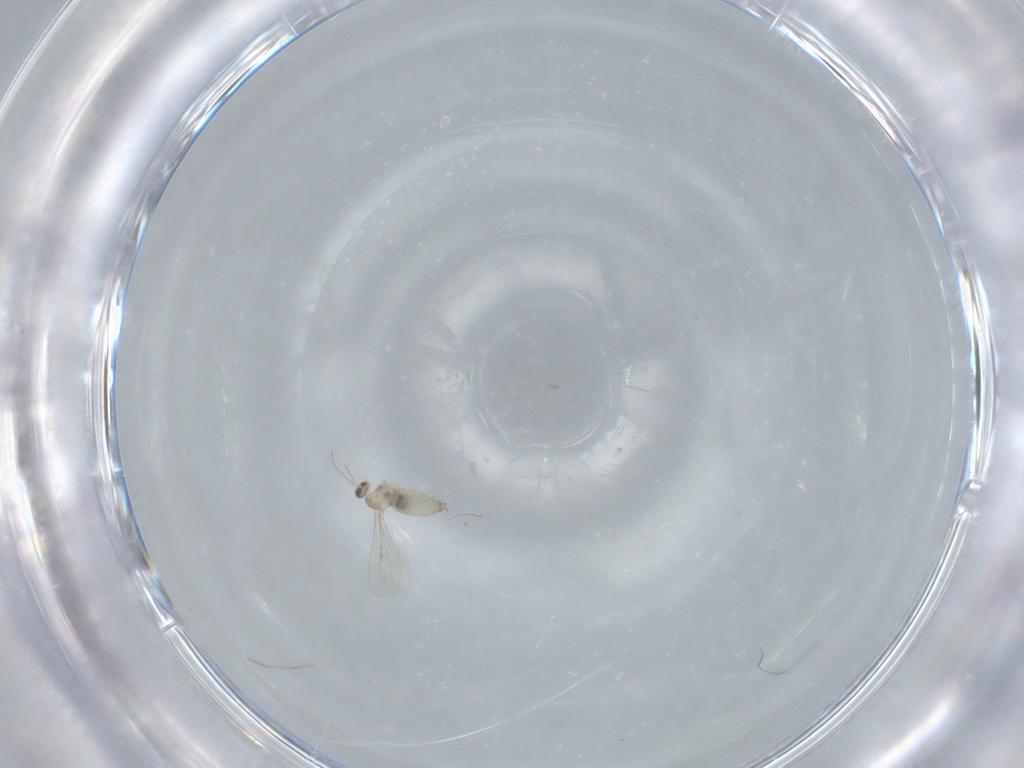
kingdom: Animalia
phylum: Arthropoda
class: Insecta
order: Diptera
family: Cecidomyiidae
